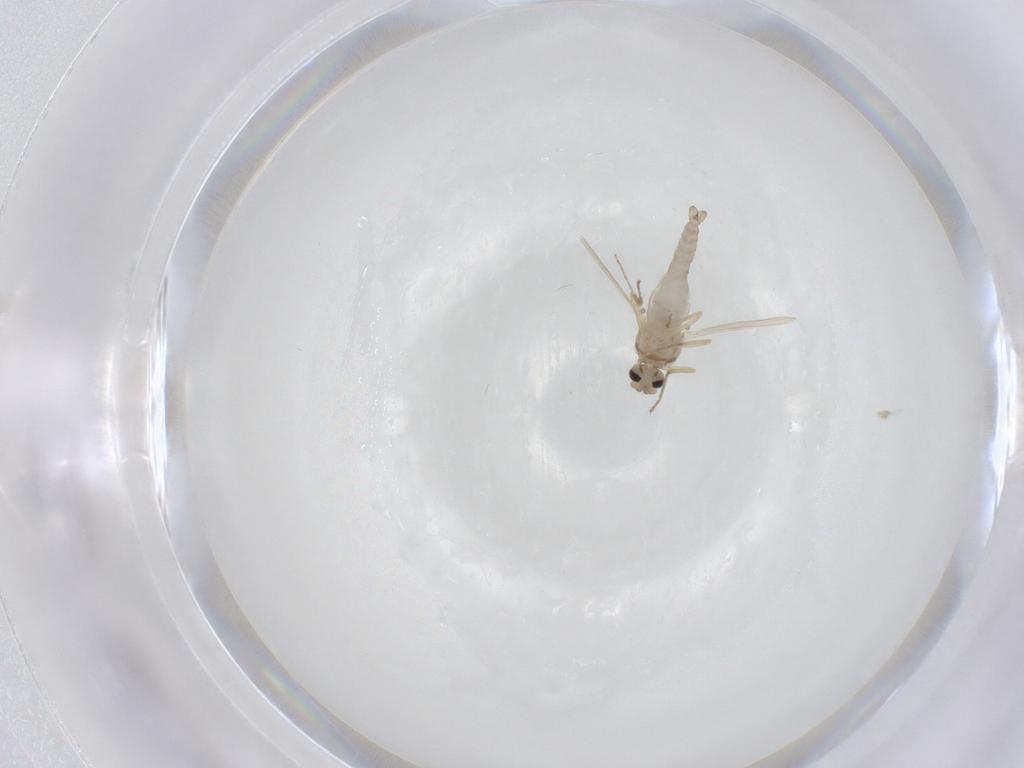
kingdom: Animalia
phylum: Arthropoda
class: Insecta
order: Diptera
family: Ceratopogonidae
